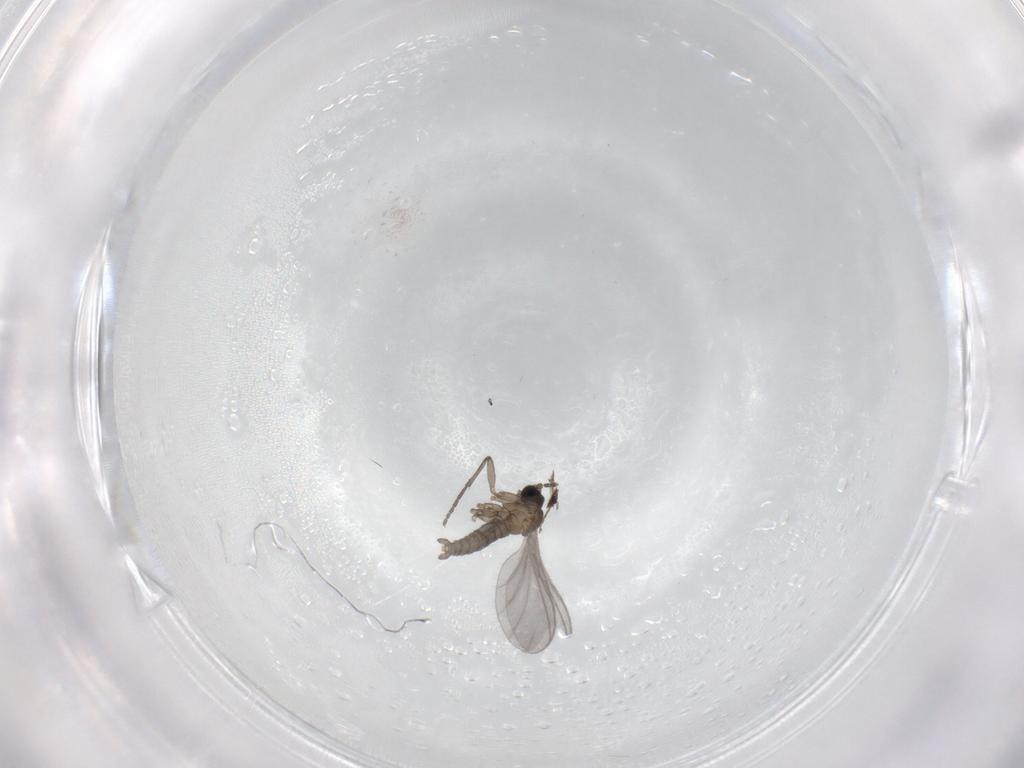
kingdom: Animalia
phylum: Arthropoda
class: Insecta
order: Diptera
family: Sciaridae
